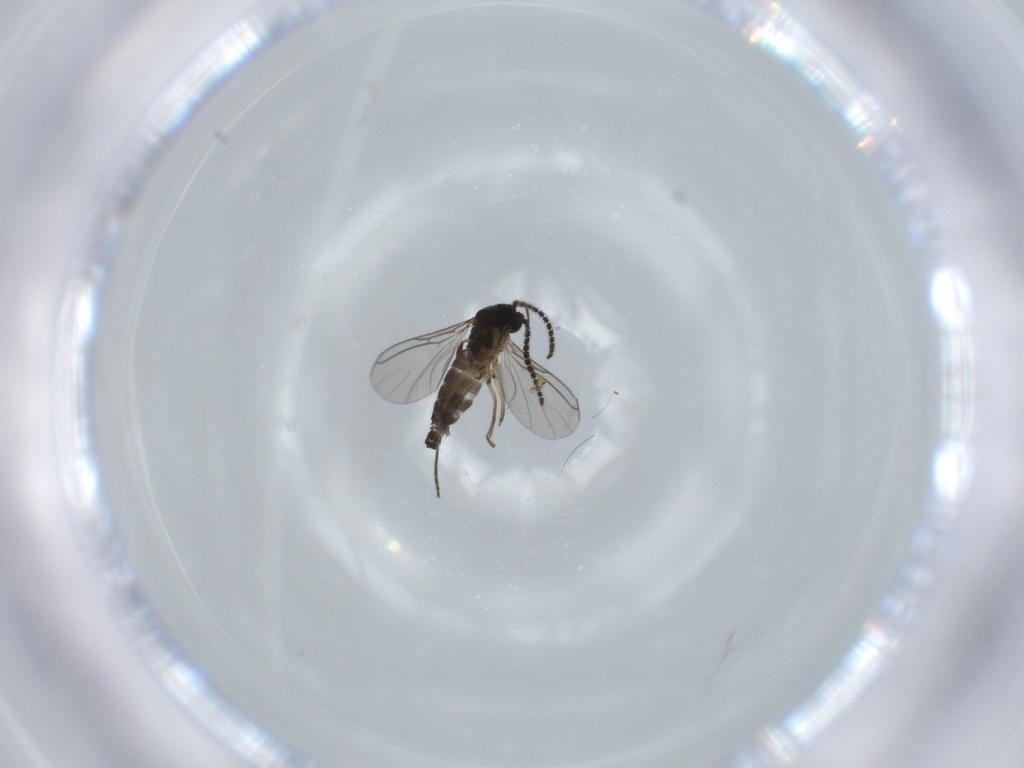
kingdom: Animalia
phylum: Arthropoda
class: Insecta
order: Diptera
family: Sciaridae
